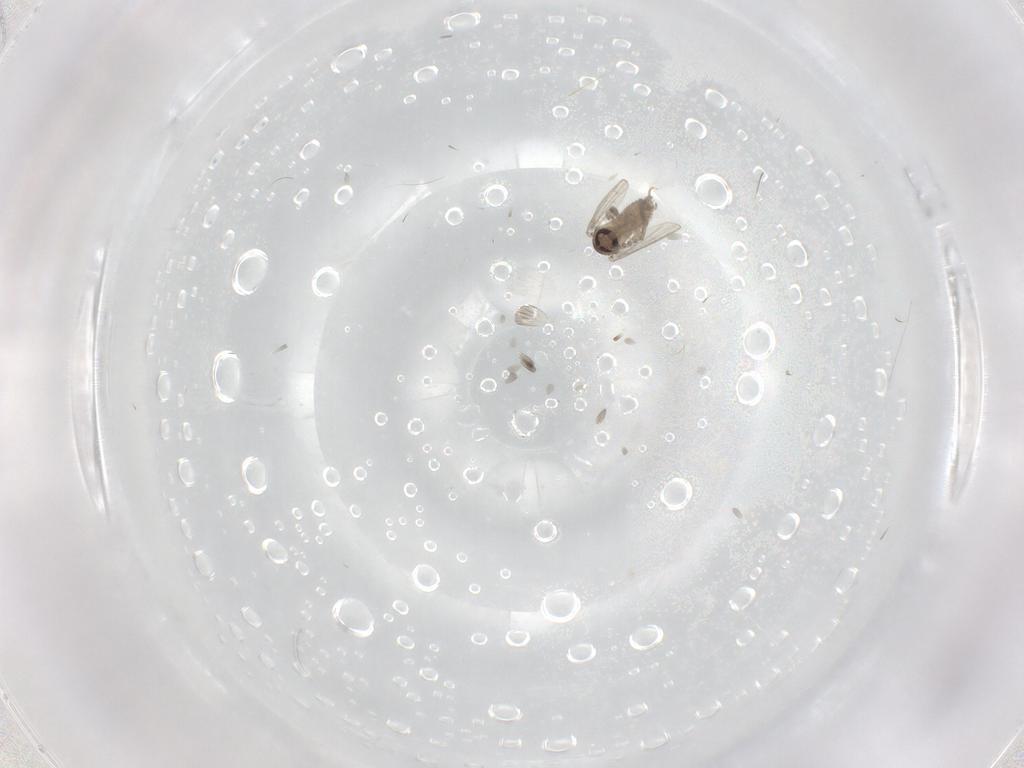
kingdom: Animalia
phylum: Arthropoda
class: Insecta
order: Diptera
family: Psychodidae
